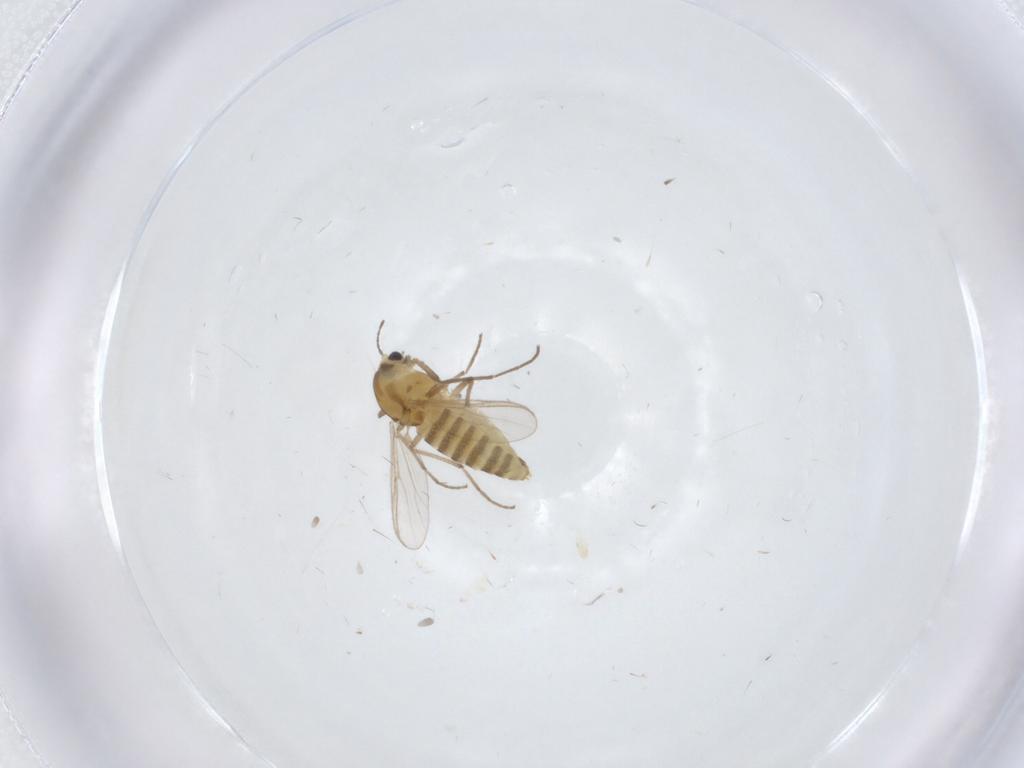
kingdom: Animalia
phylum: Arthropoda
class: Insecta
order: Diptera
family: Chironomidae
